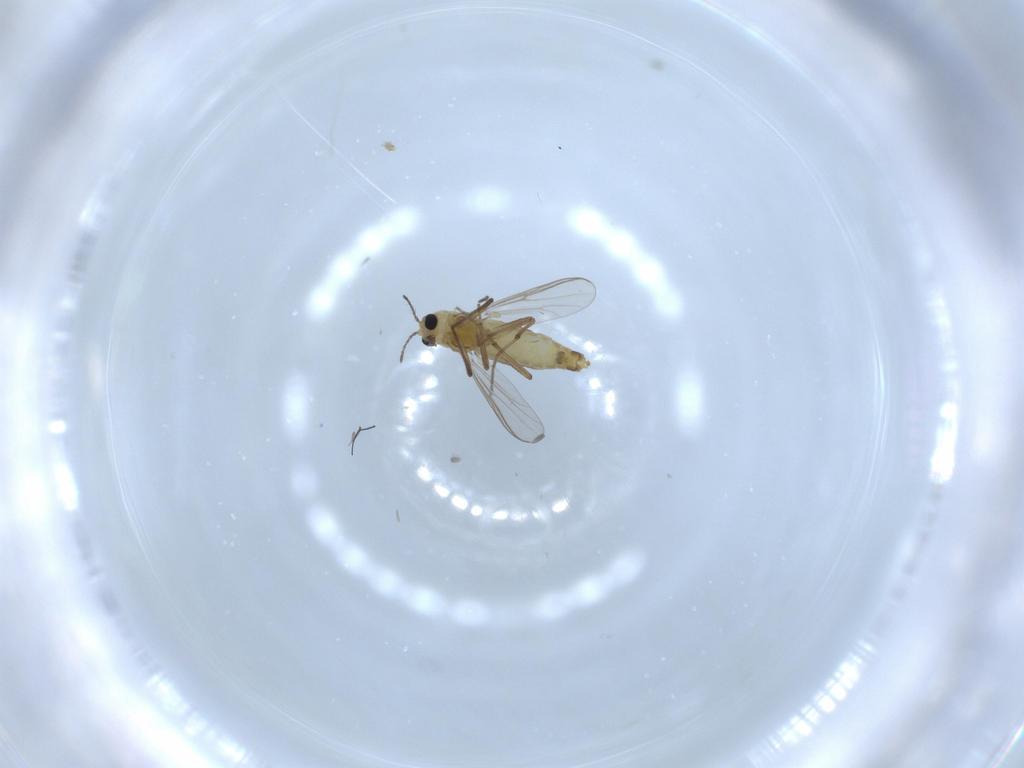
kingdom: Animalia
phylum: Arthropoda
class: Insecta
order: Diptera
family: Chironomidae
